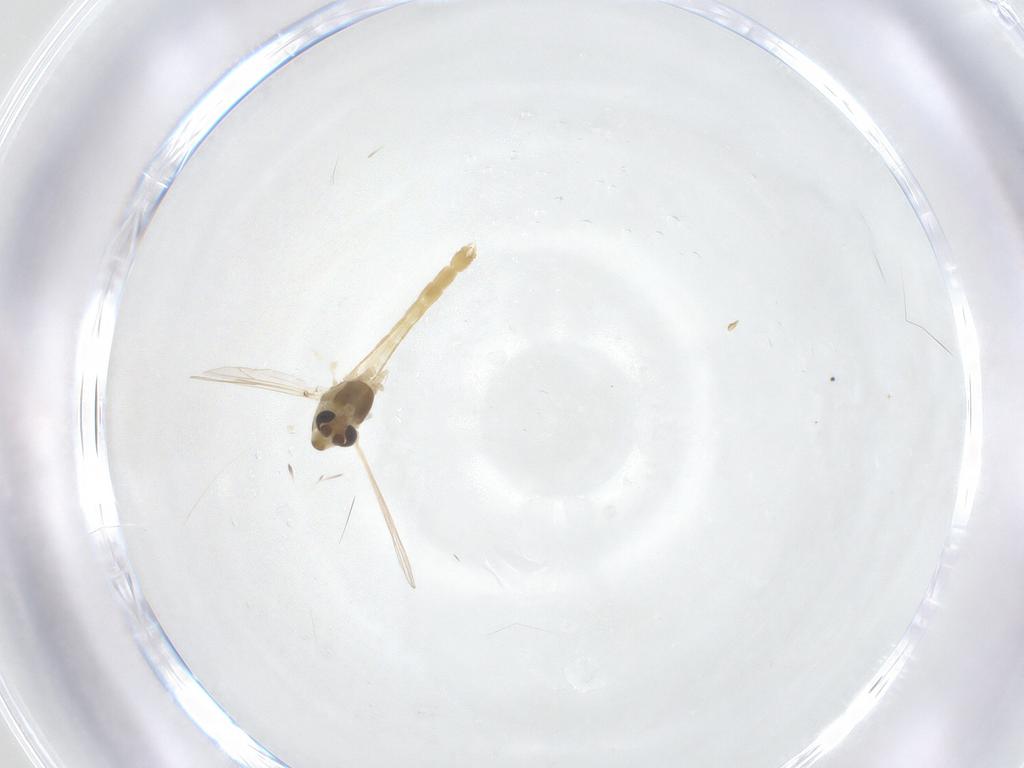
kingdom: Animalia
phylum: Arthropoda
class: Insecta
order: Diptera
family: Chironomidae
